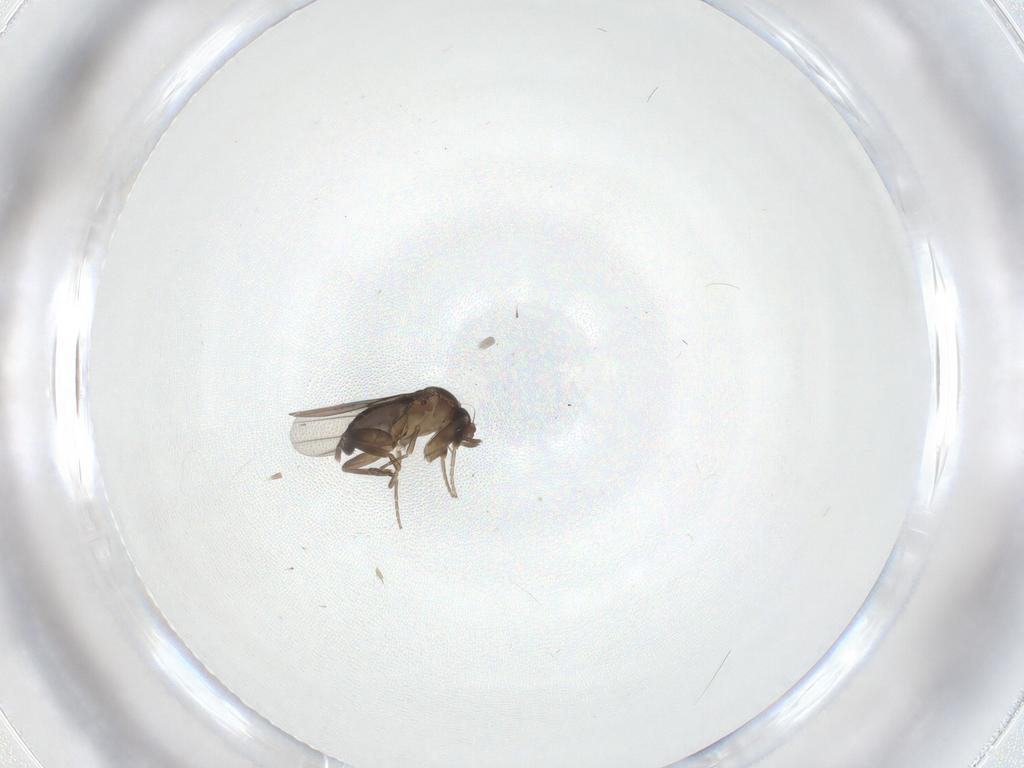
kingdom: Animalia
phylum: Arthropoda
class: Insecta
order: Diptera
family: Phoridae
